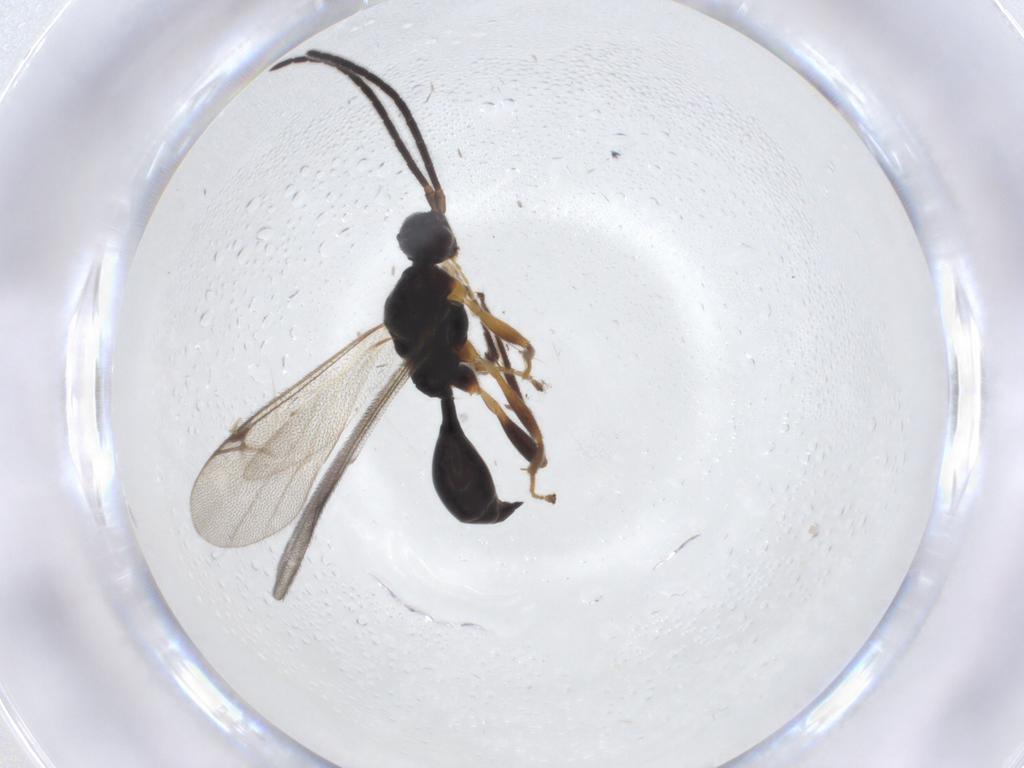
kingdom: Animalia
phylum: Arthropoda
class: Insecta
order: Hymenoptera
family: Proctotrupidae
